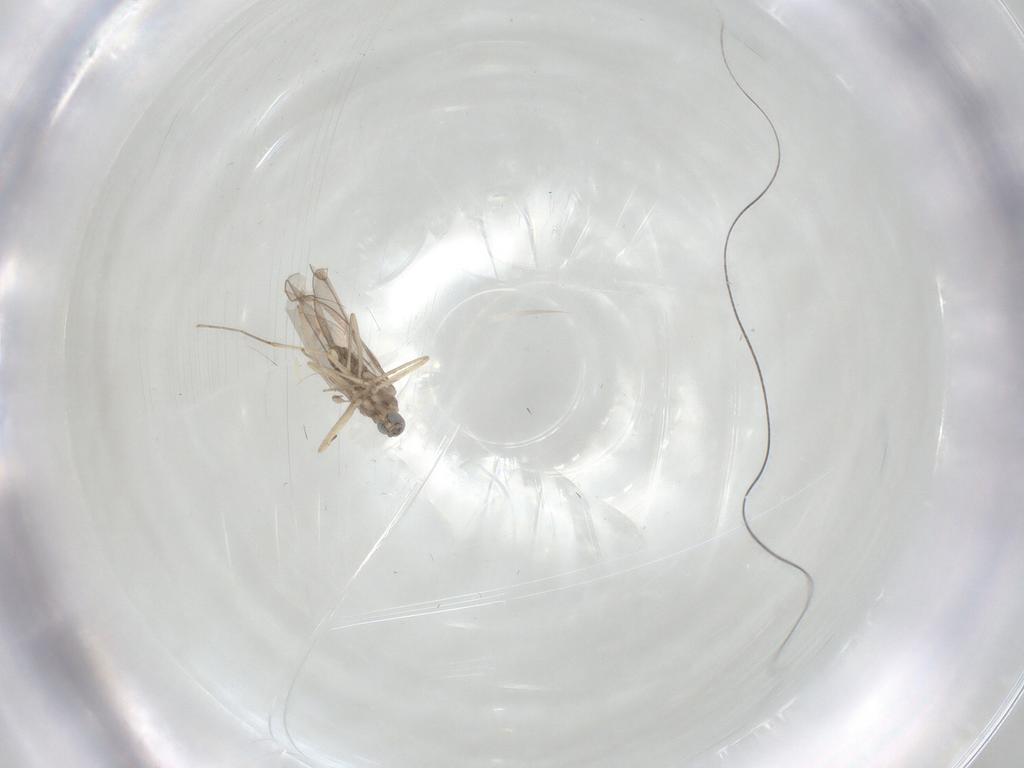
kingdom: Animalia
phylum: Arthropoda
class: Insecta
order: Diptera
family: Cecidomyiidae
